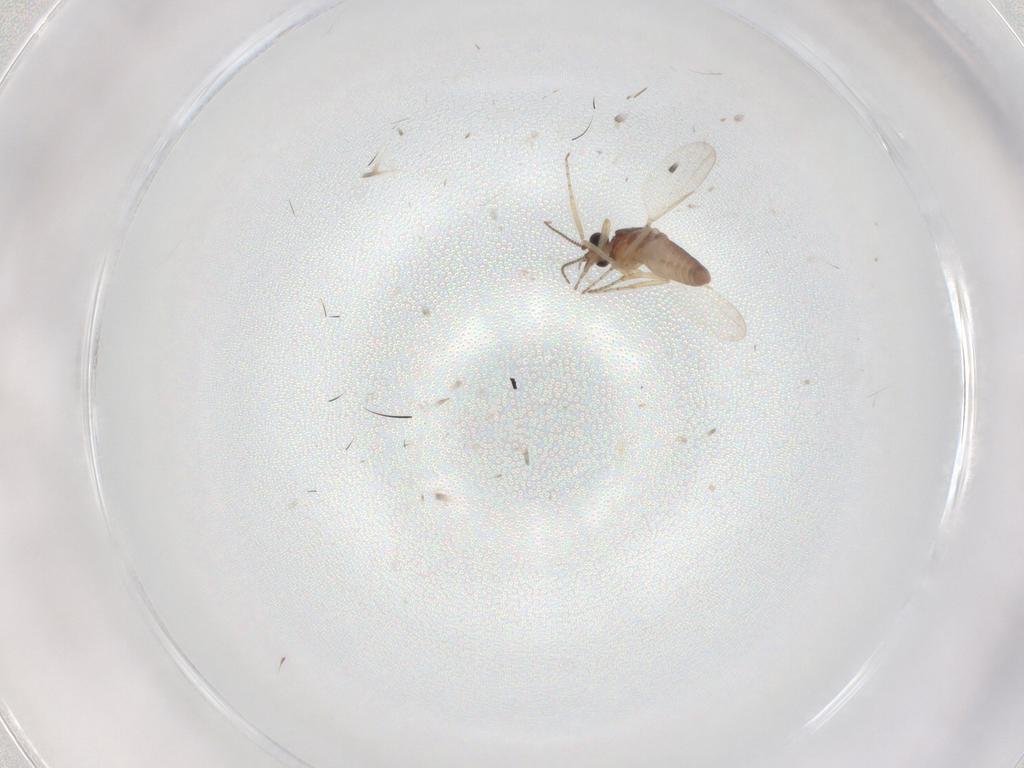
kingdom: Animalia
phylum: Arthropoda
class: Insecta
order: Diptera
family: Ceratopogonidae
